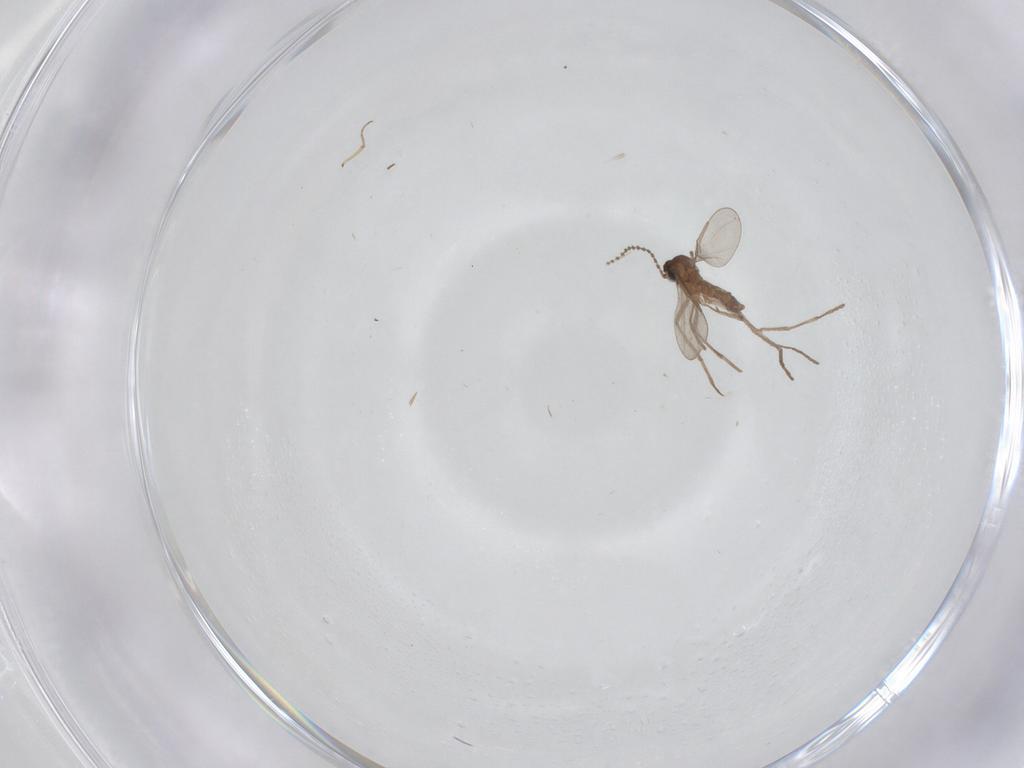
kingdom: Animalia
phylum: Arthropoda
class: Insecta
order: Diptera
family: Cecidomyiidae
